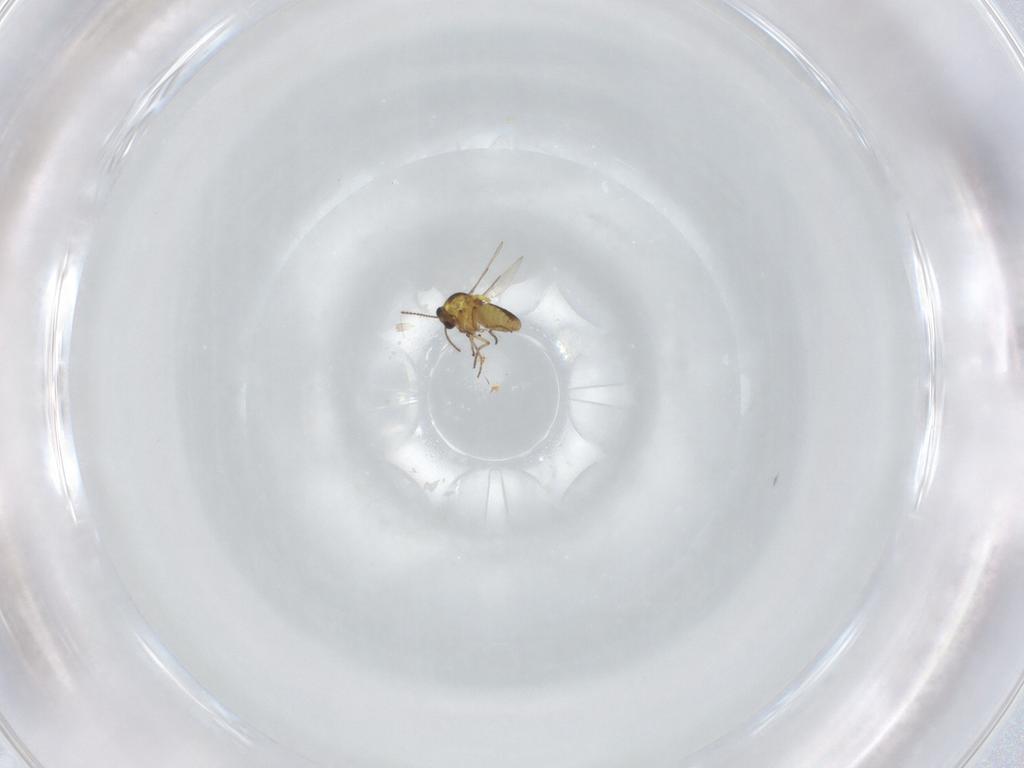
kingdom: Animalia
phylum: Arthropoda
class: Insecta
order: Diptera
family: Ceratopogonidae
